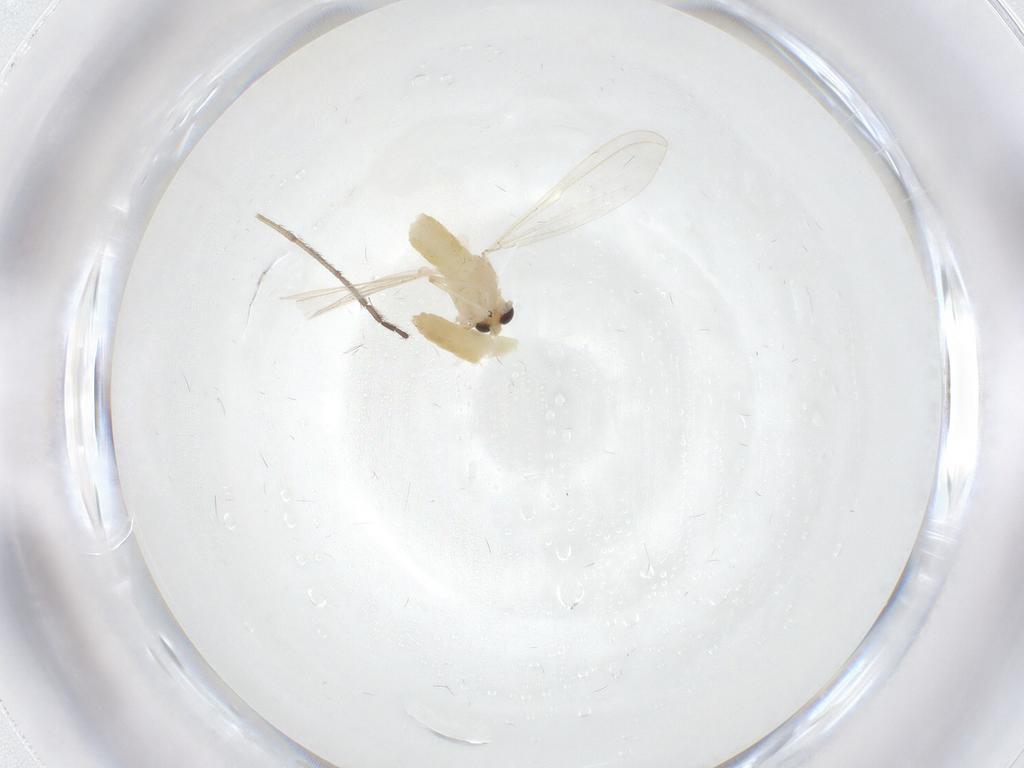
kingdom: Animalia
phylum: Arthropoda
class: Insecta
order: Diptera
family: Chironomidae
